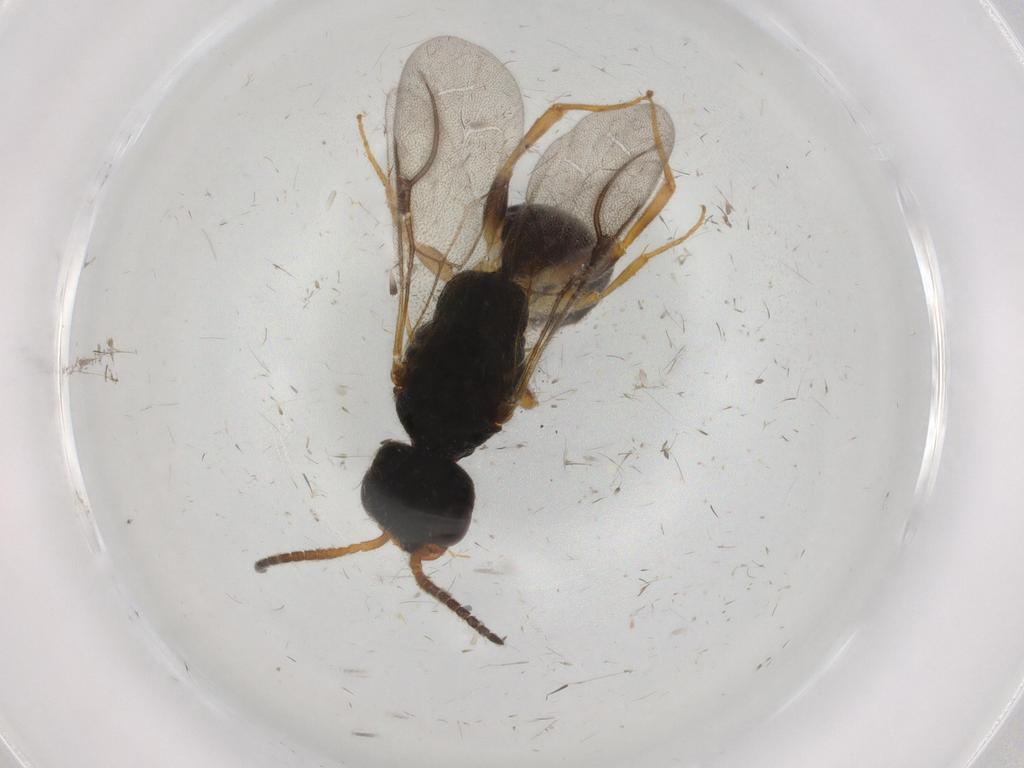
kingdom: Animalia
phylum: Arthropoda
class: Insecta
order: Hymenoptera
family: Bethylidae
